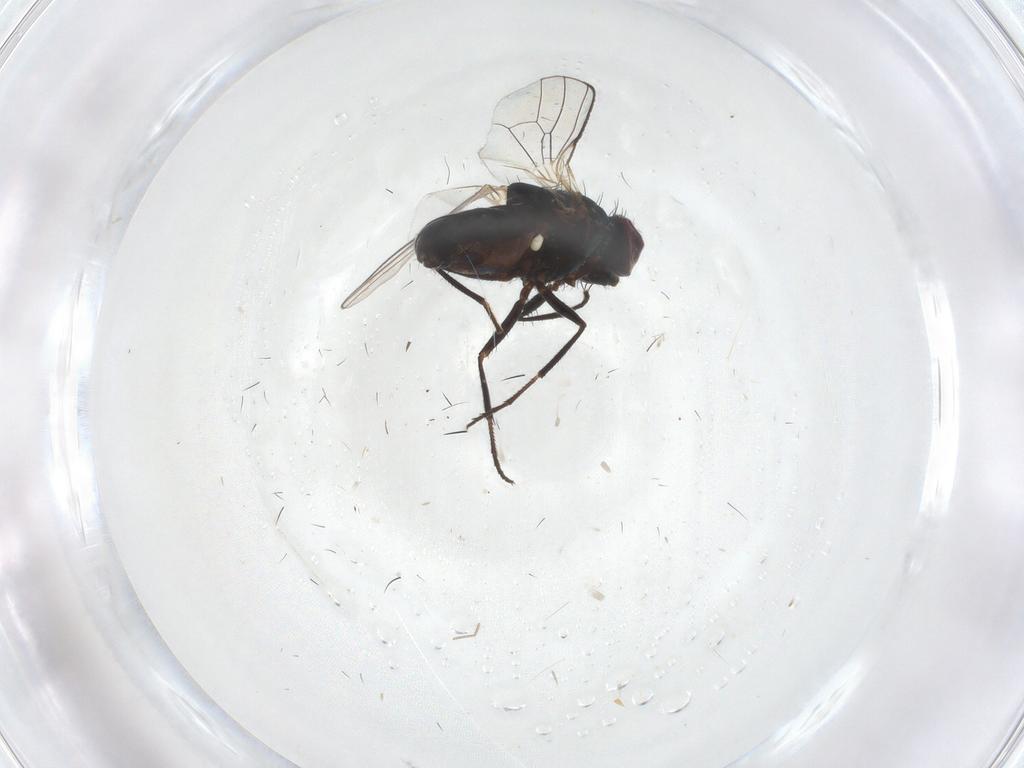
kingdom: Animalia
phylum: Arthropoda
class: Insecta
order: Diptera
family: Carnidae
